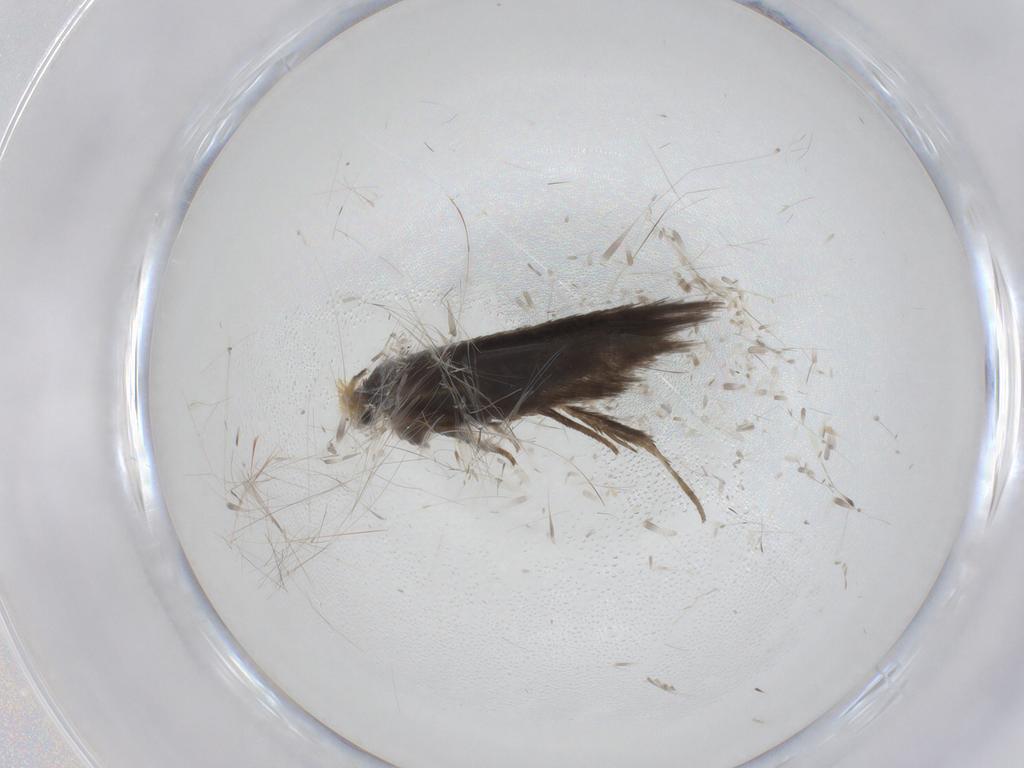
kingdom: Animalia
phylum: Arthropoda
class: Insecta
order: Lepidoptera
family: Nepticulidae
